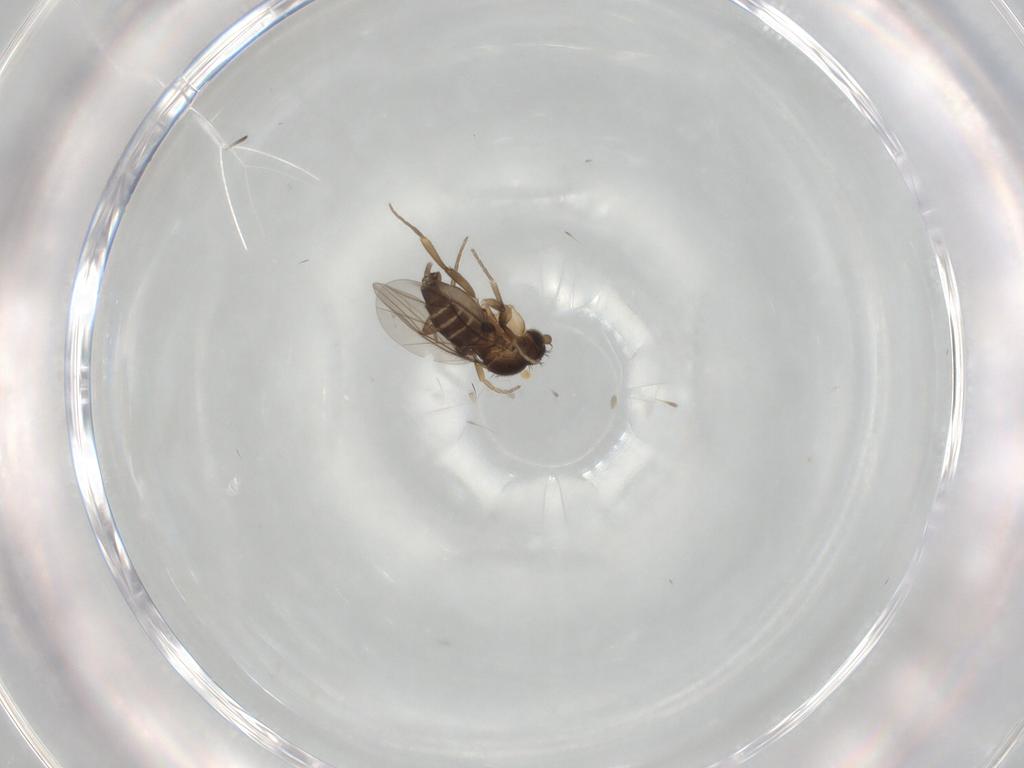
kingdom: Animalia
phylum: Arthropoda
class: Insecta
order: Diptera
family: Phoridae
